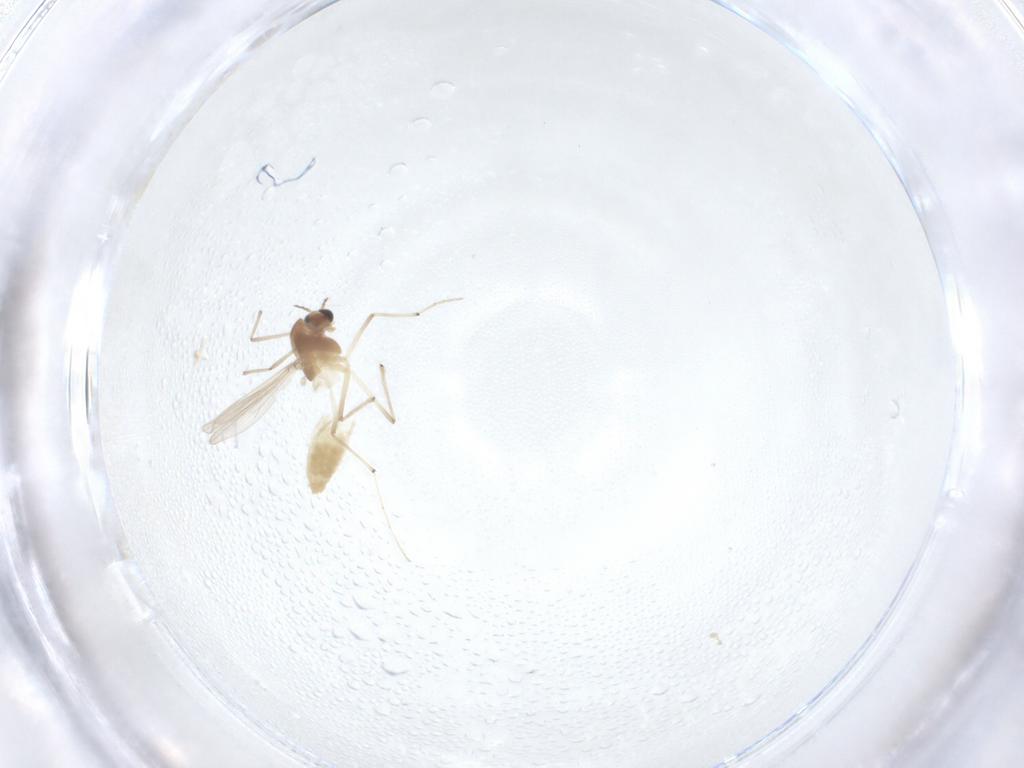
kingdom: Animalia
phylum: Arthropoda
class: Insecta
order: Diptera
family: Chironomidae
